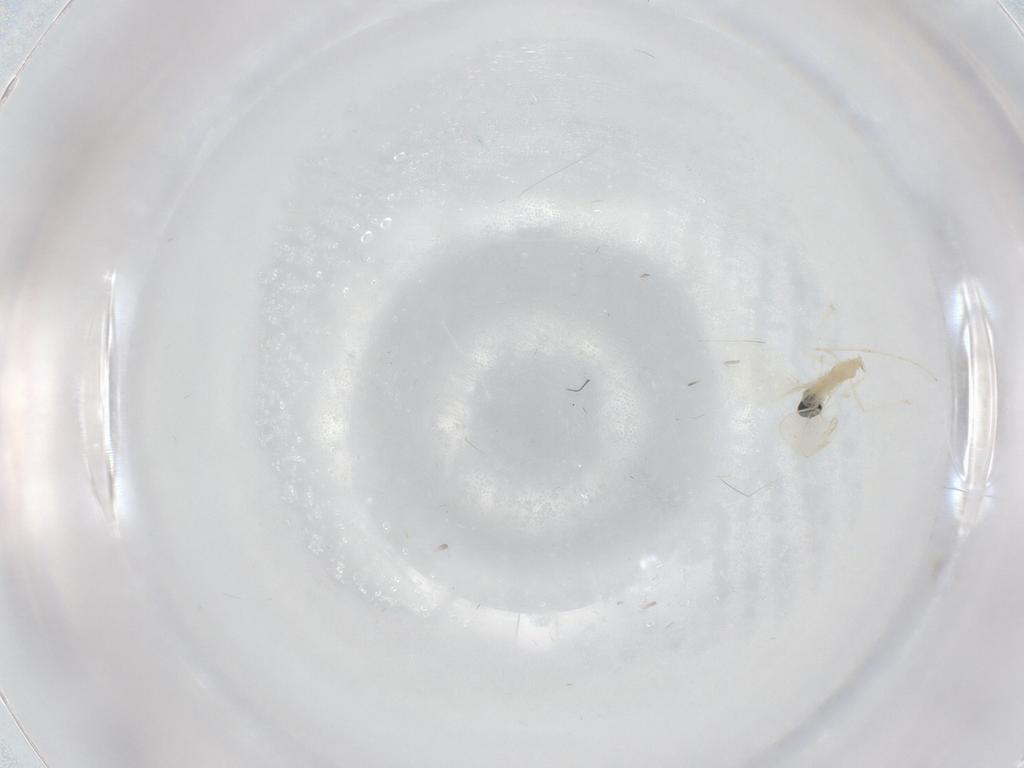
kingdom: Animalia
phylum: Arthropoda
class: Insecta
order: Diptera
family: Chironomidae
